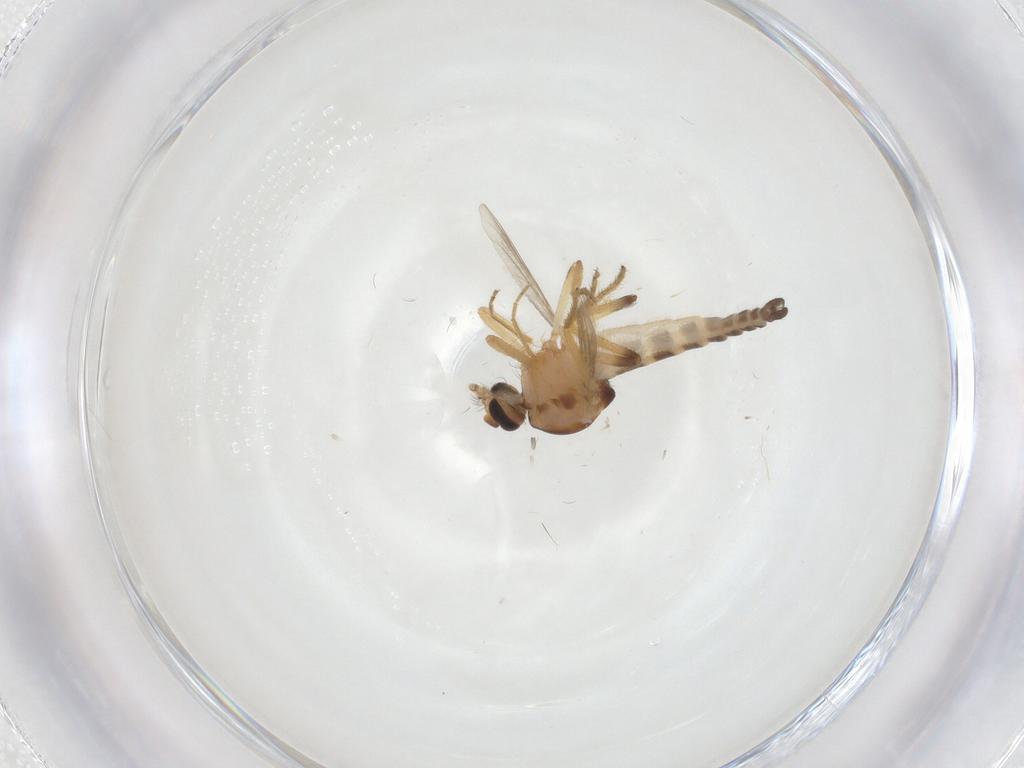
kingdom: Animalia
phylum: Arthropoda
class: Insecta
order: Diptera
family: Ceratopogonidae
